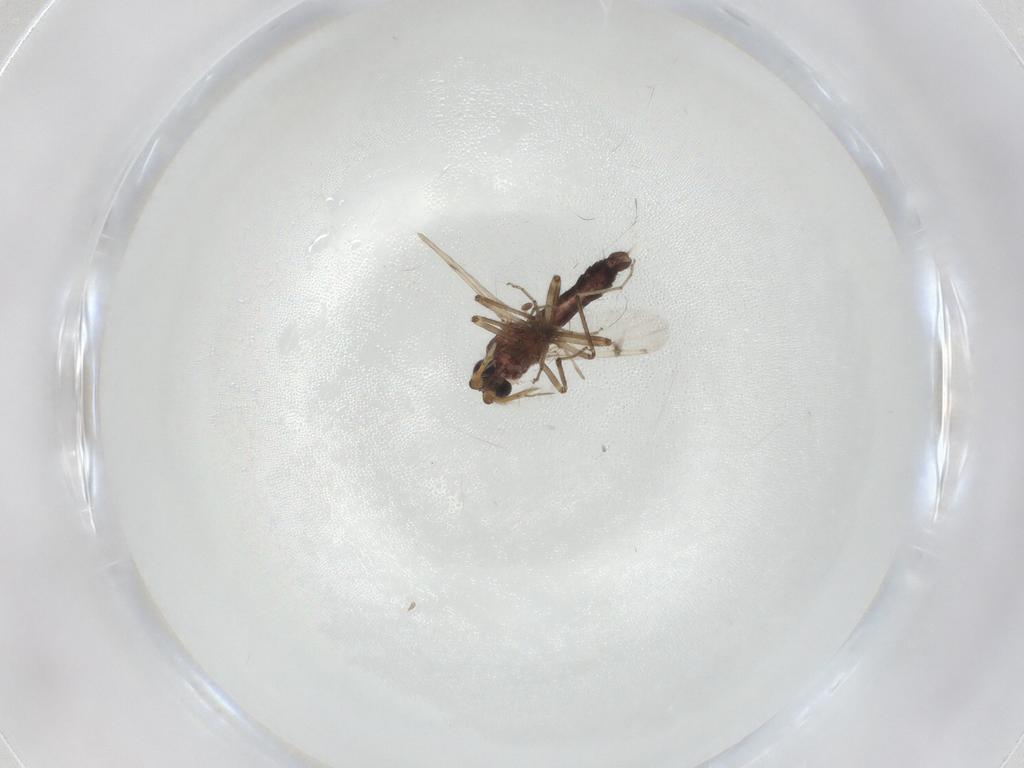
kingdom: Animalia
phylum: Arthropoda
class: Insecta
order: Diptera
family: Ceratopogonidae
